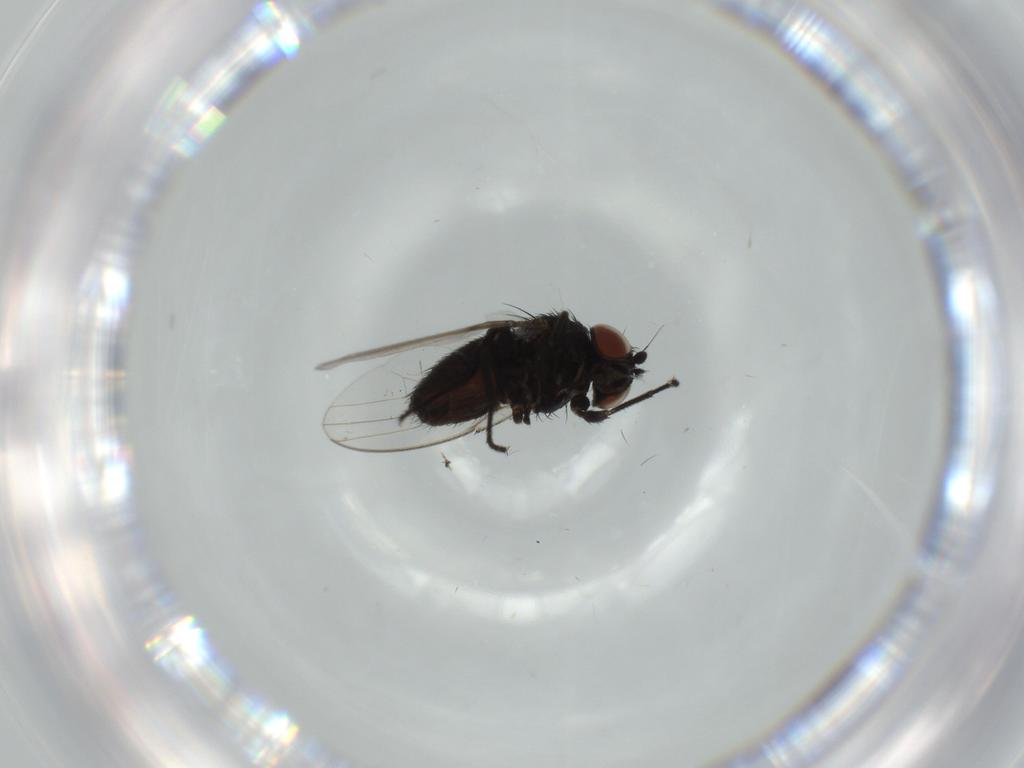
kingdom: Animalia
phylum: Arthropoda
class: Insecta
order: Diptera
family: Milichiidae
